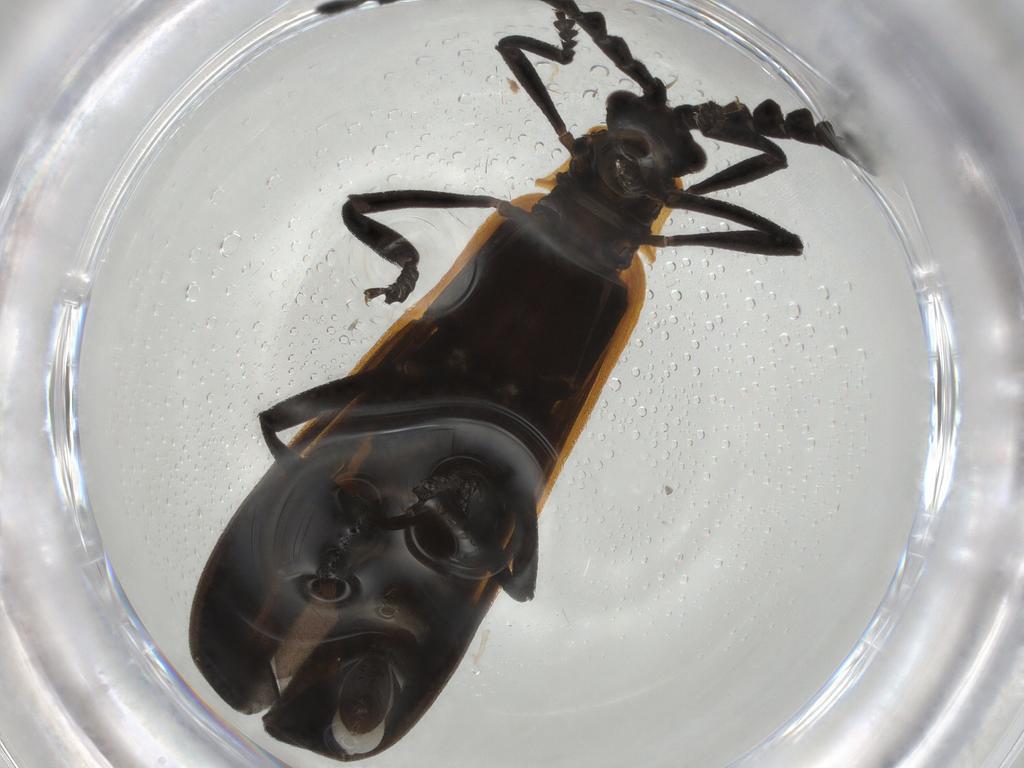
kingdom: Animalia
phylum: Arthropoda
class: Insecta
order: Coleoptera
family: Lycidae
